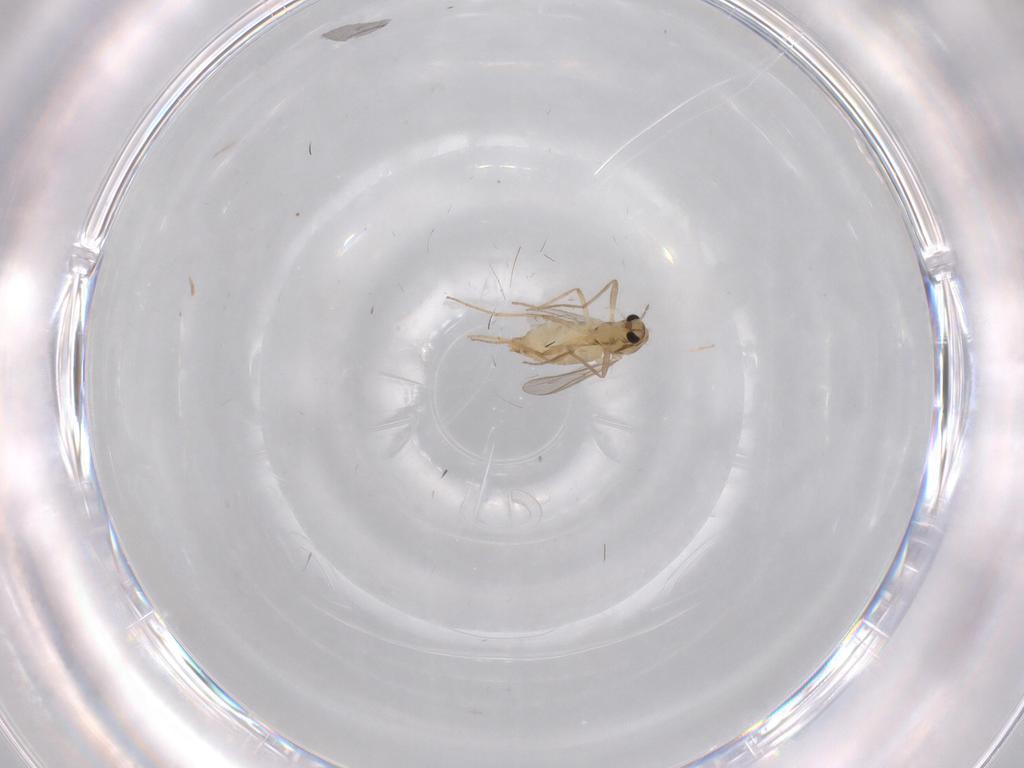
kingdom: Animalia
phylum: Arthropoda
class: Insecta
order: Diptera
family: Chironomidae
